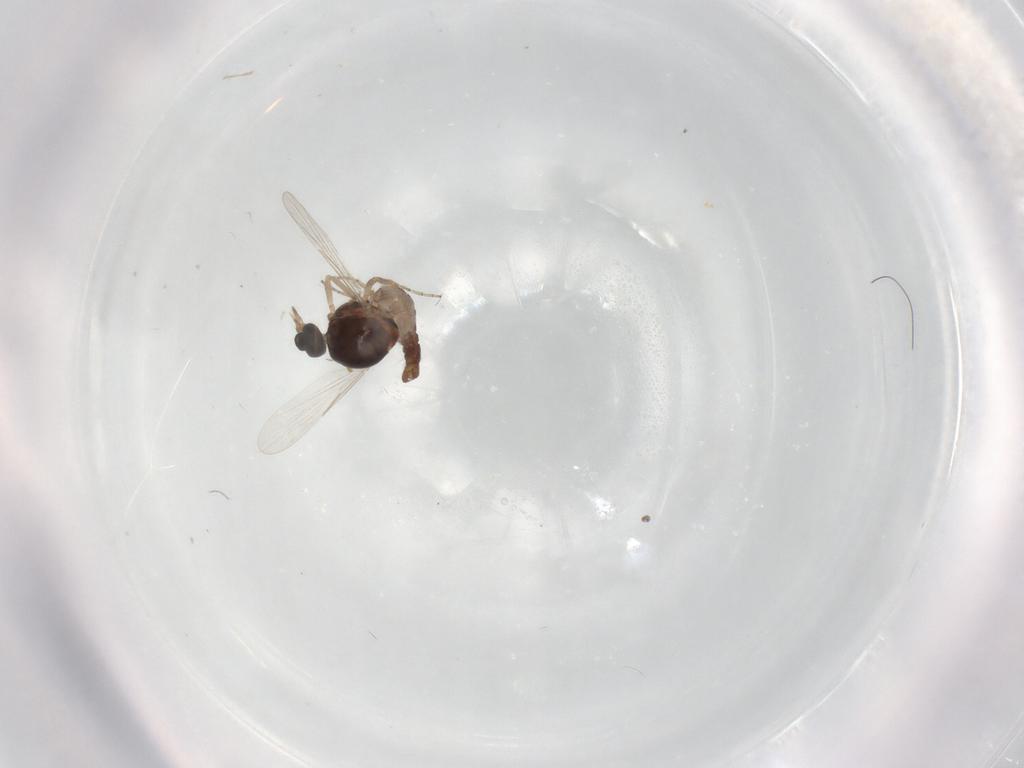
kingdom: Animalia
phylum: Arthropoda
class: Insecta
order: Diptera
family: Ceratopogonidae
